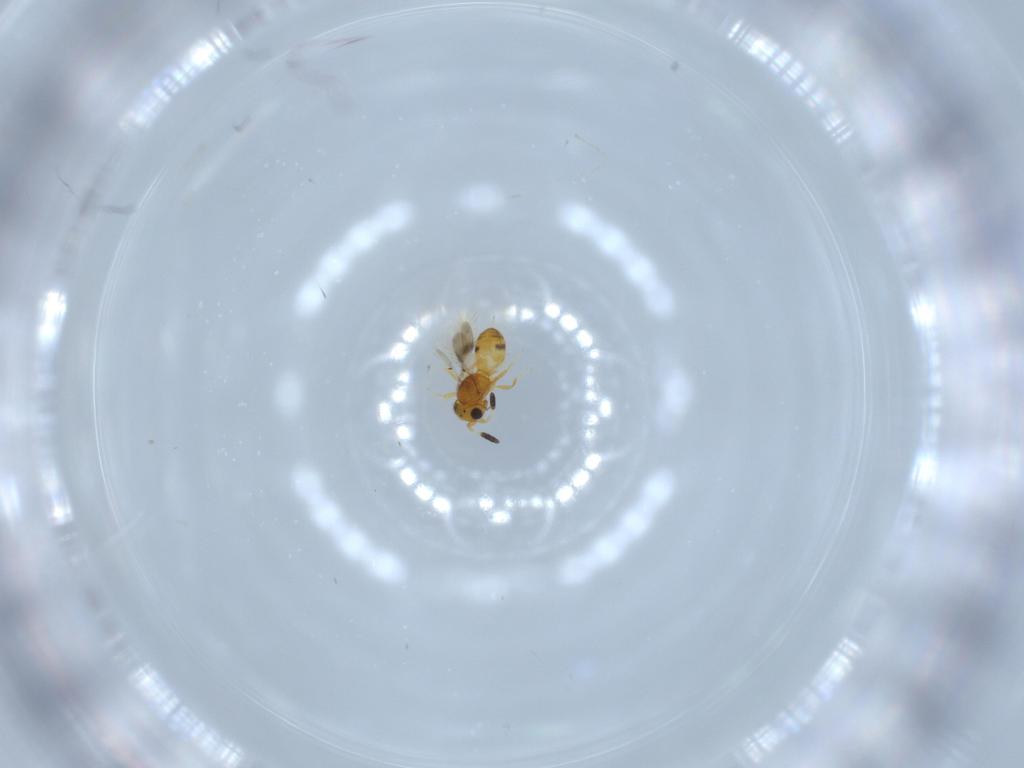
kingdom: Animalia
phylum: Arthropoda
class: Insecta
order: Hymenoptera
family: Scelionidae
